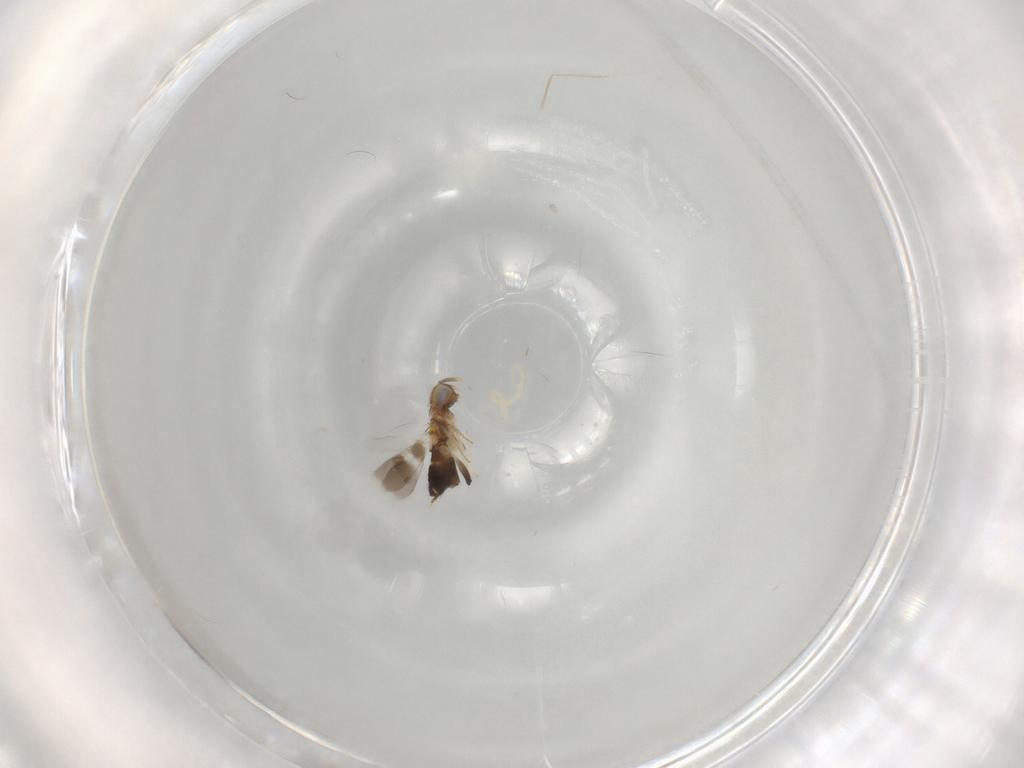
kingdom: Animalia
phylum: Arthropoda
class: Insecta
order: Hymenoptera
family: Aphelinidae
